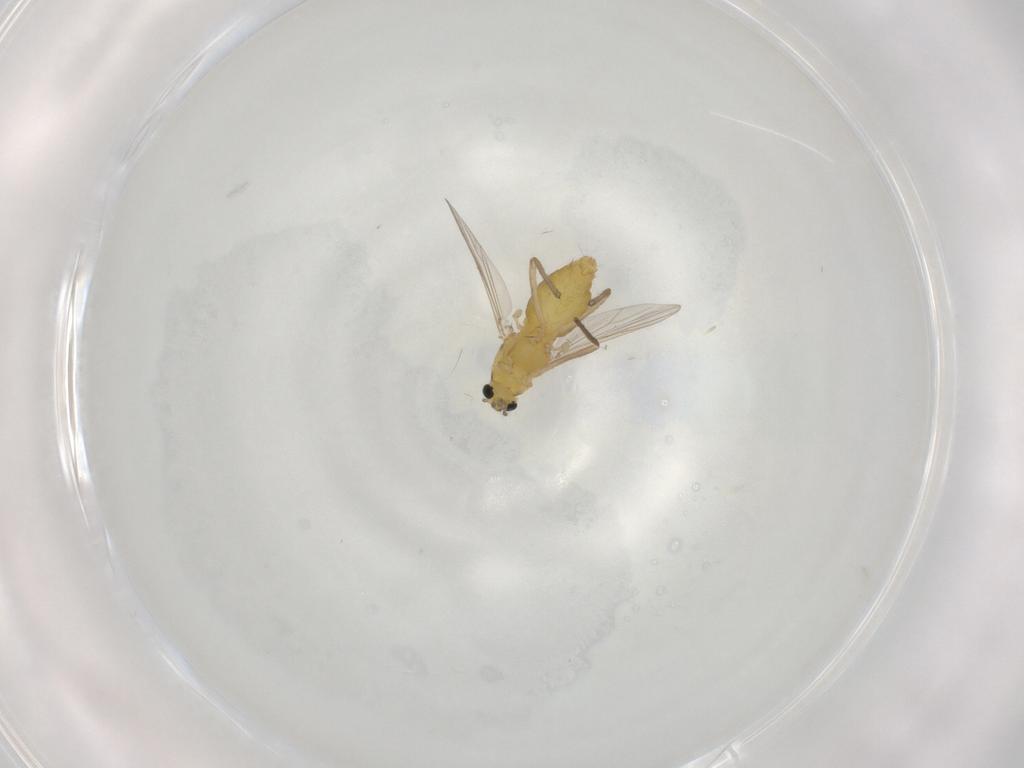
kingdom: Animalia
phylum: Arthropoda
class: Insecta
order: Diptera
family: Chironomidae
